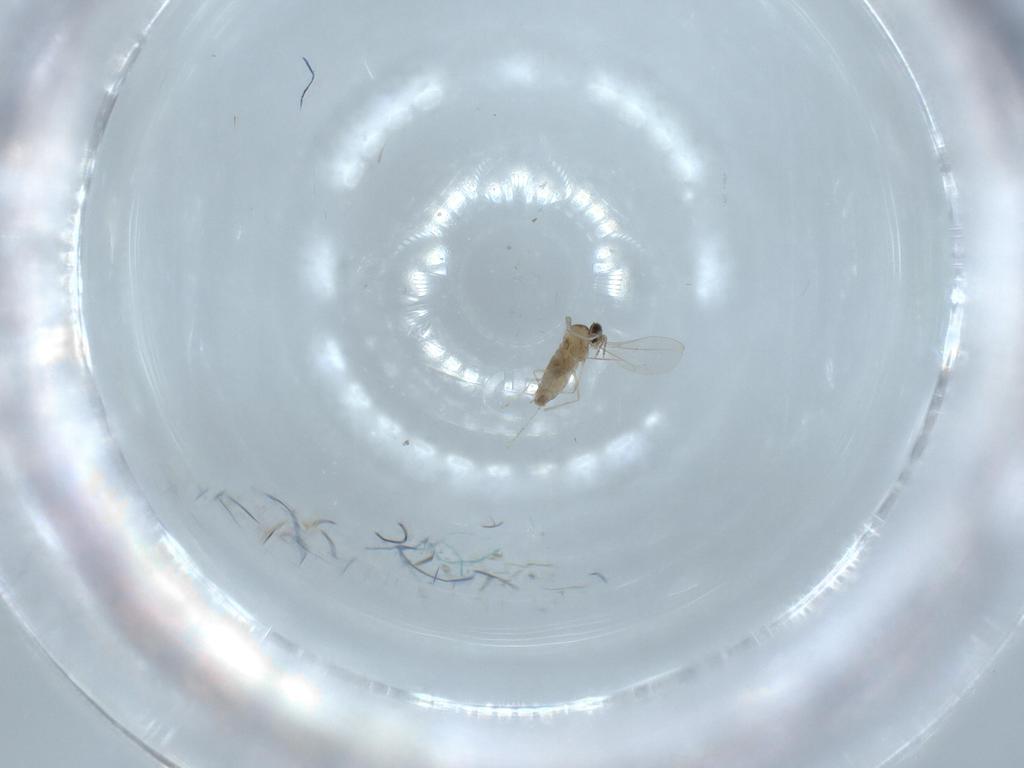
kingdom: Animalia
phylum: Arthropoda
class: Insecta
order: Diptera
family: Cecidomyiidae
